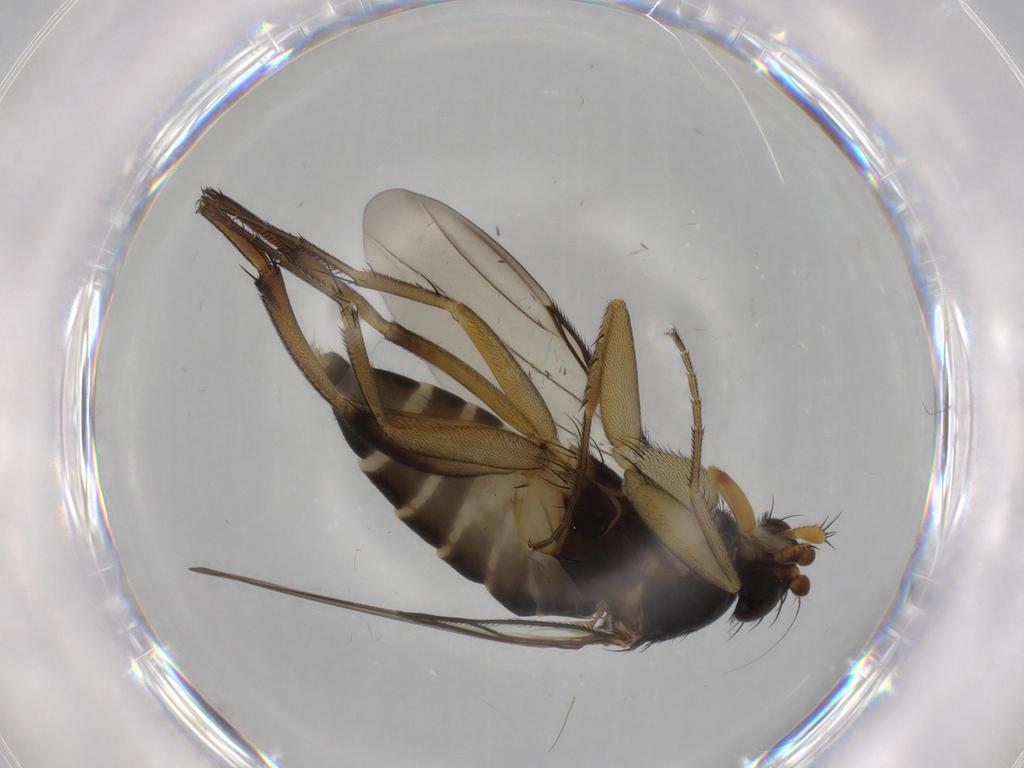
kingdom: Animalia
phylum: Arthropoda
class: Insecta
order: Diptera
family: Phoridae
